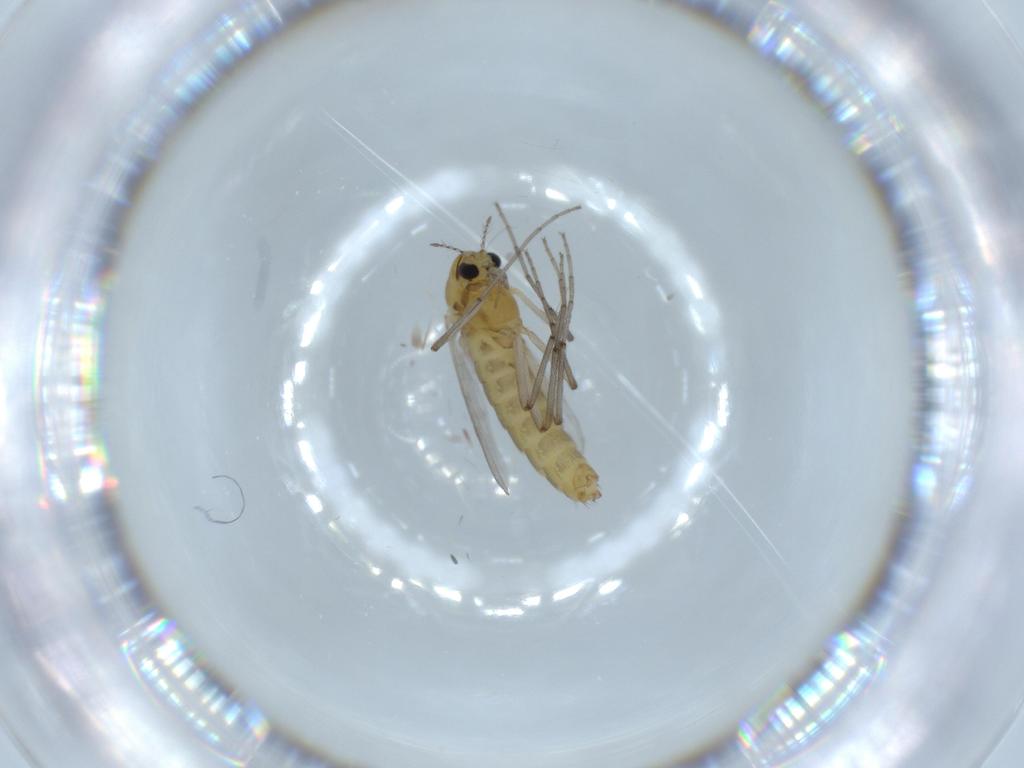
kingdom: Animalia
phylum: Arthropoda
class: Insecta
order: Diptera
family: Chironomidae
